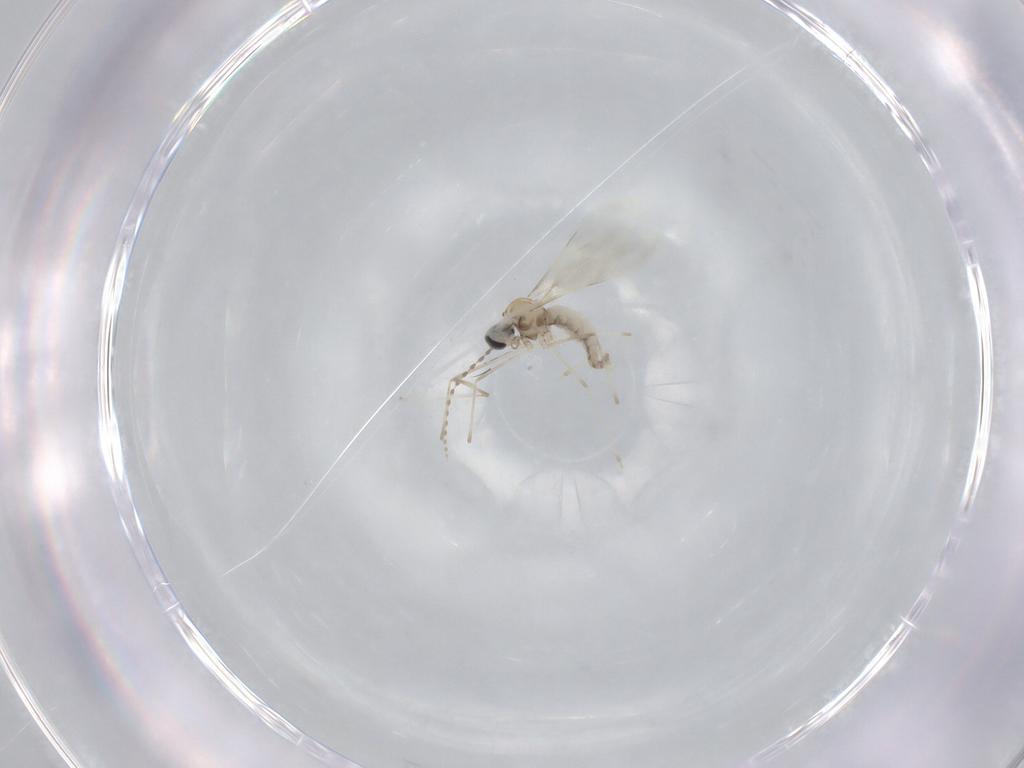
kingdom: Animalia
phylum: Arthropoda
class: Insecta
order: Diptera
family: Cecidomyiidae
